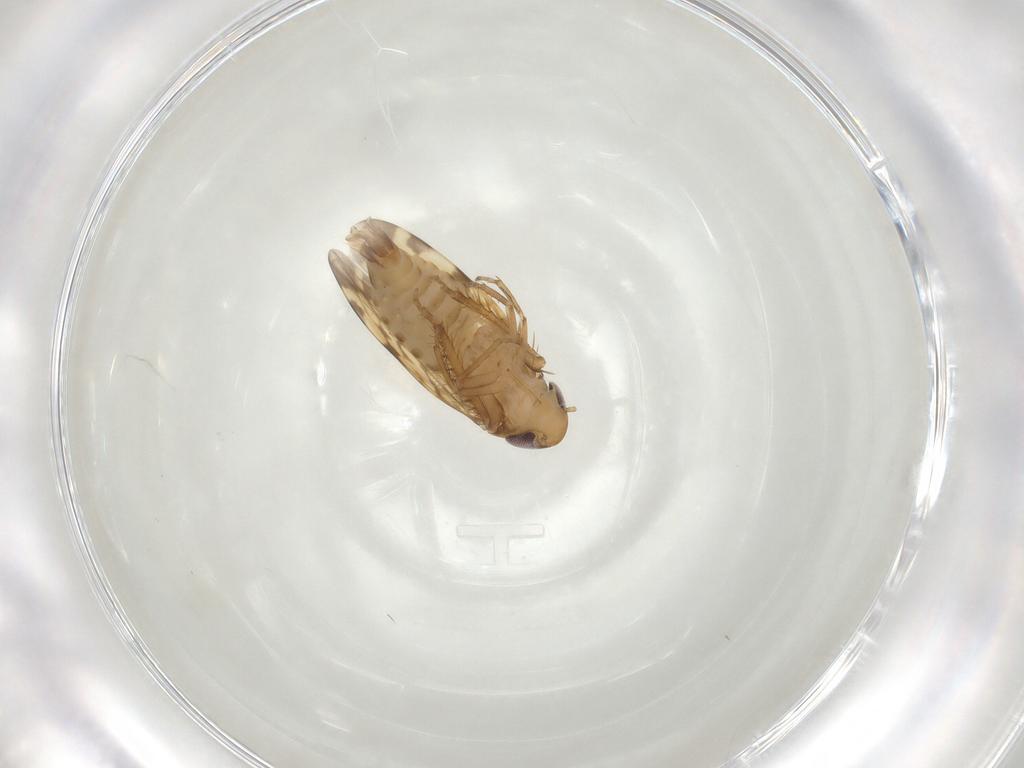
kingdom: Animalia
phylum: Arthropoda
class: Insecta
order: Hemiptera
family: Cicadellidae
